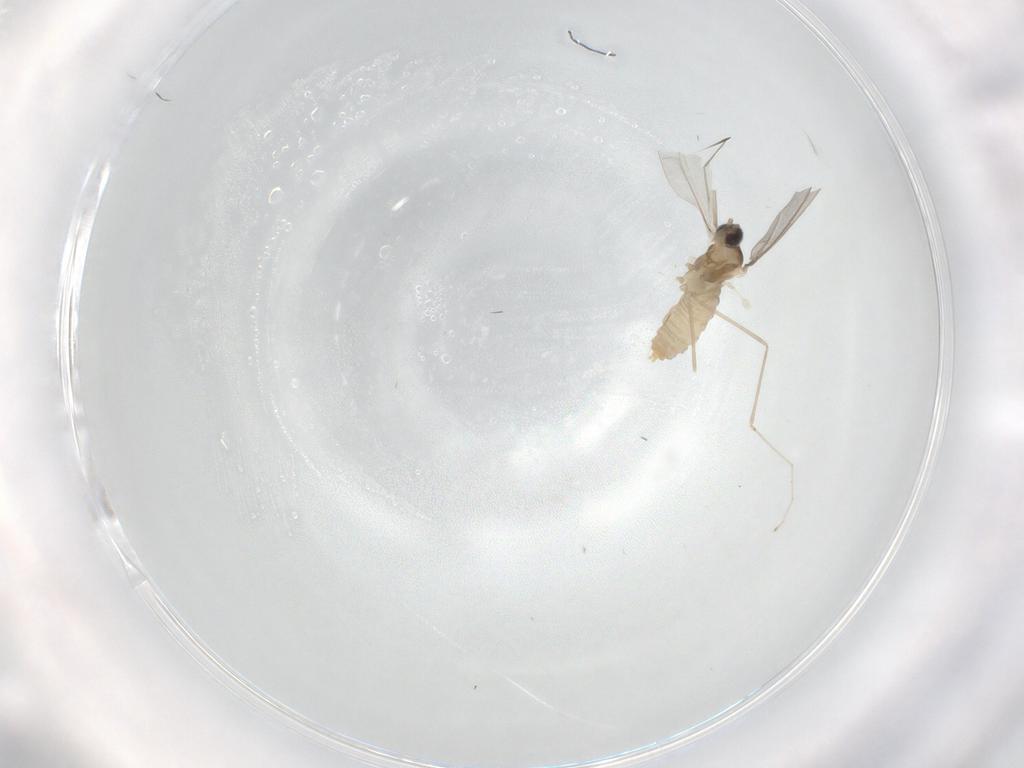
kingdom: Animalia
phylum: Arthropoda
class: Insecta
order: Diptera
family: Cecidomyiidae
